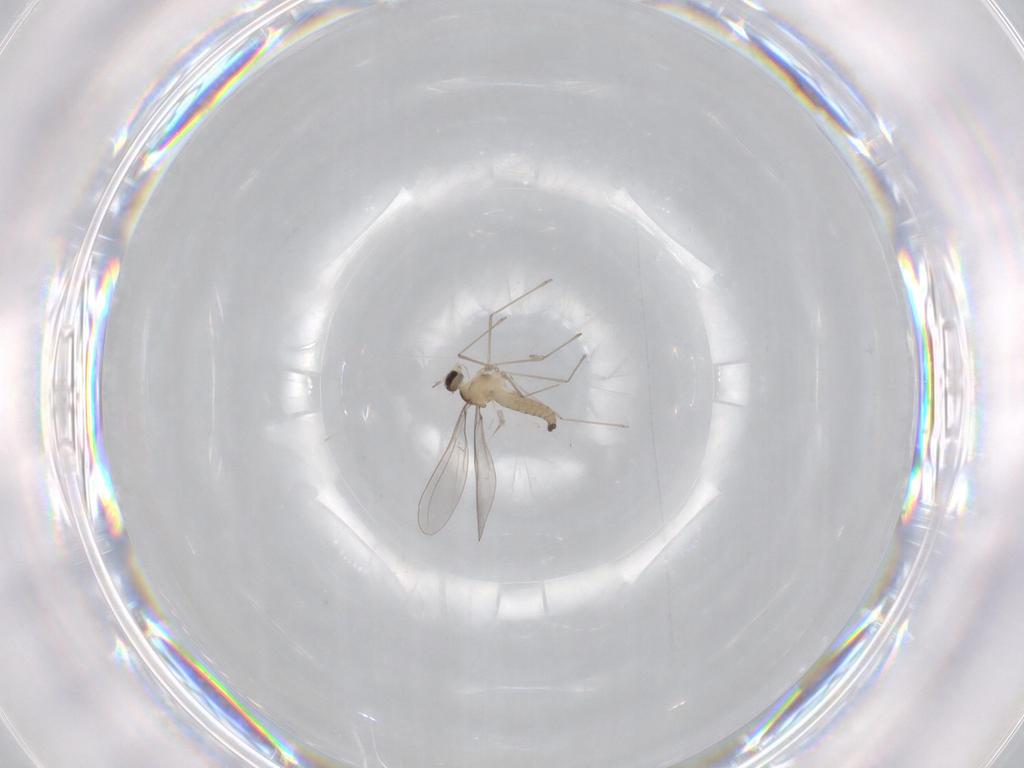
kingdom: Animalia
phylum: Arthropoda
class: Insecta
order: Diptera
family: Cecidomyiidae
